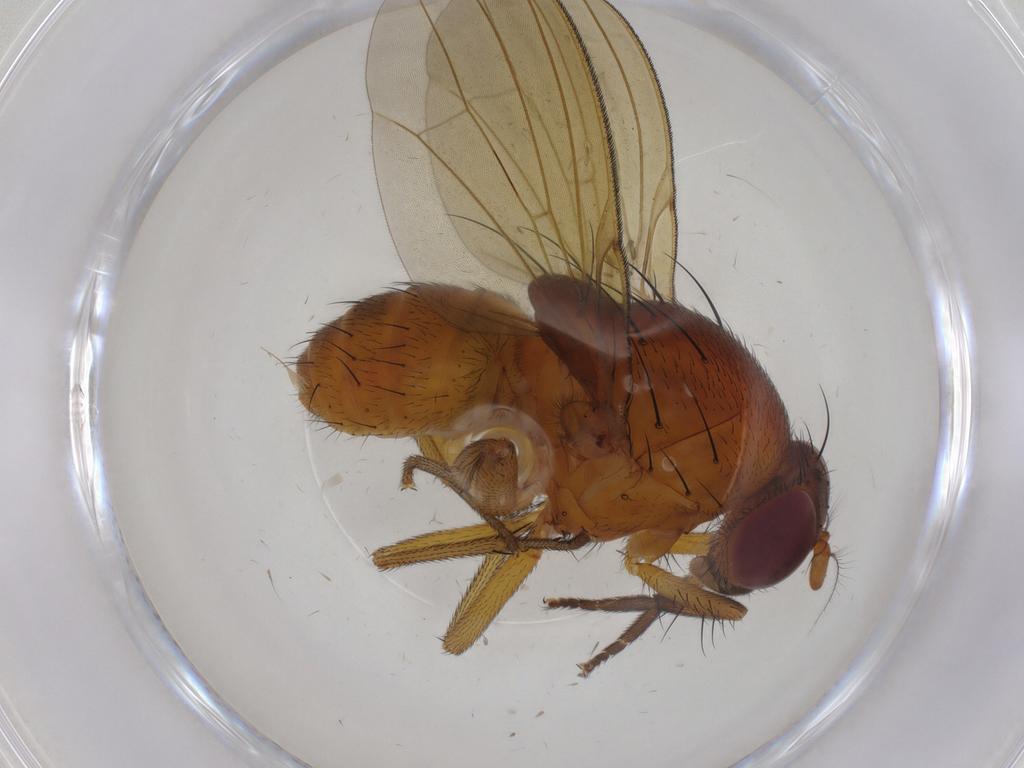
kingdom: Animalia
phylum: Arthropoda
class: Insecta
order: Diptera
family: Cecidomyiidae
